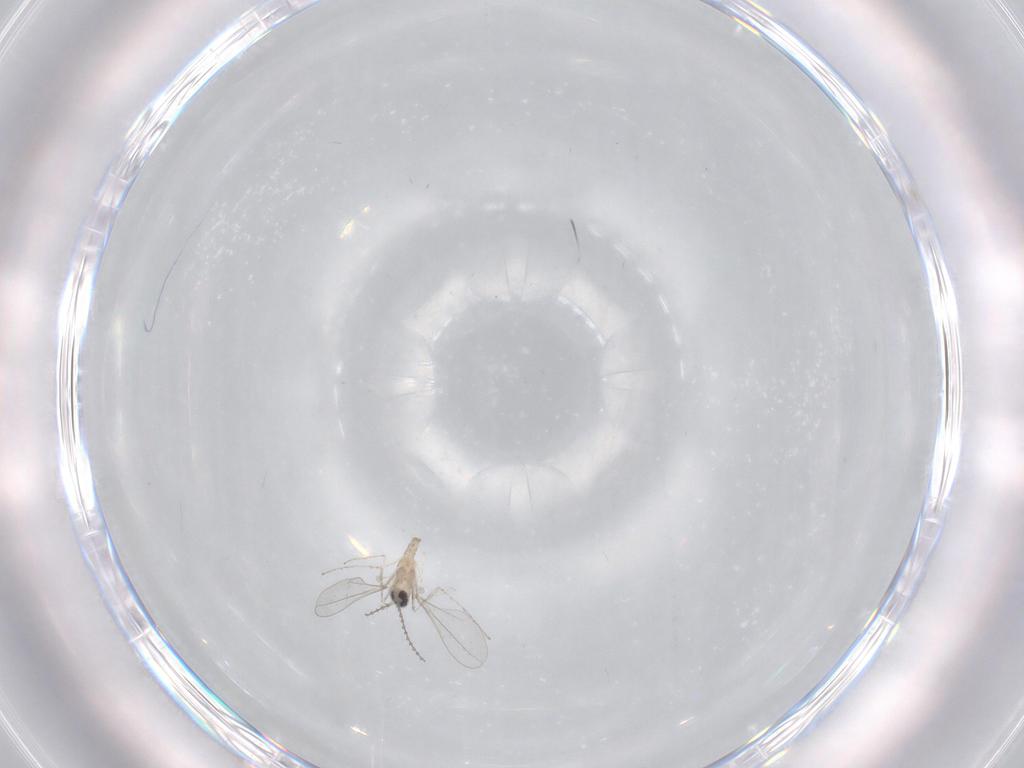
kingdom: Animalia
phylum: Arthropoda
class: Insecta
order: Diptera
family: Cecidomyiidae
